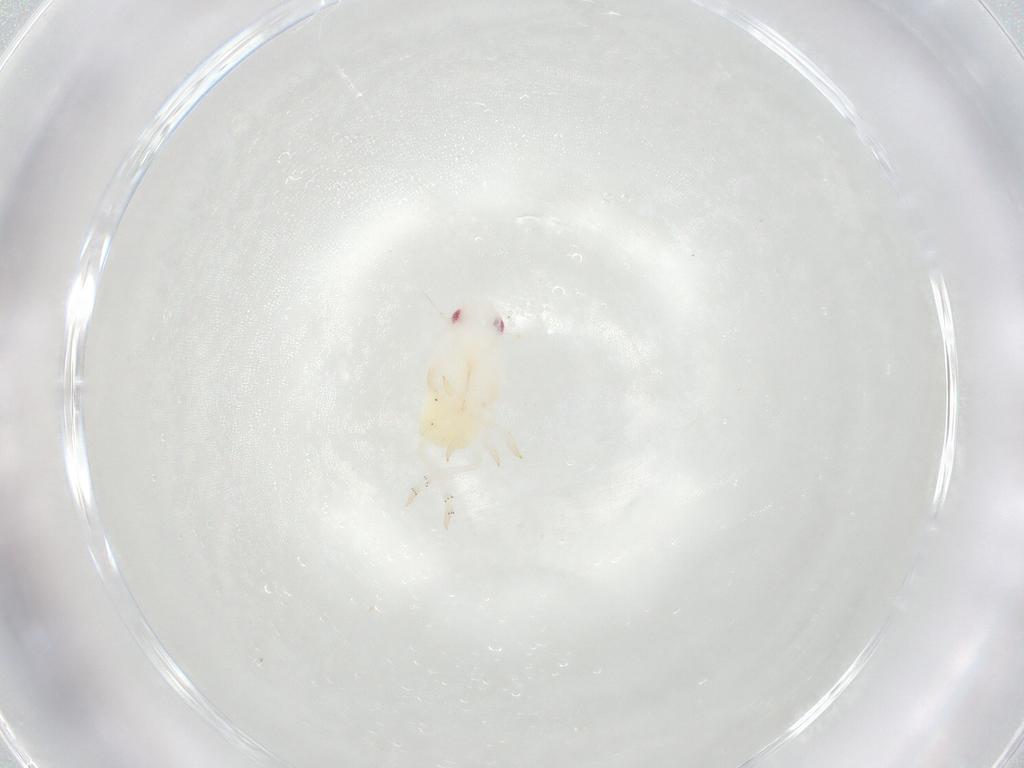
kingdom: Animalia
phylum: Arthropoda
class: Insecta
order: Hemiptera
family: Flatidae
